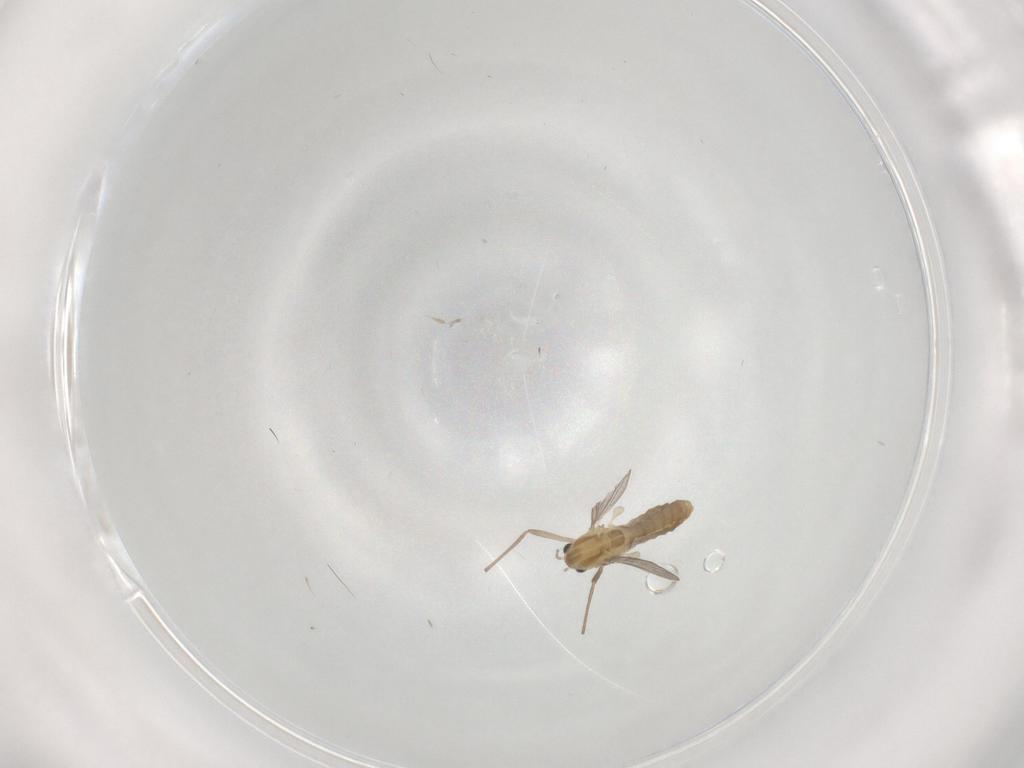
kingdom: Animalia
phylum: Arthropoda
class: Insecta
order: Diptera
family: Chironomidae
